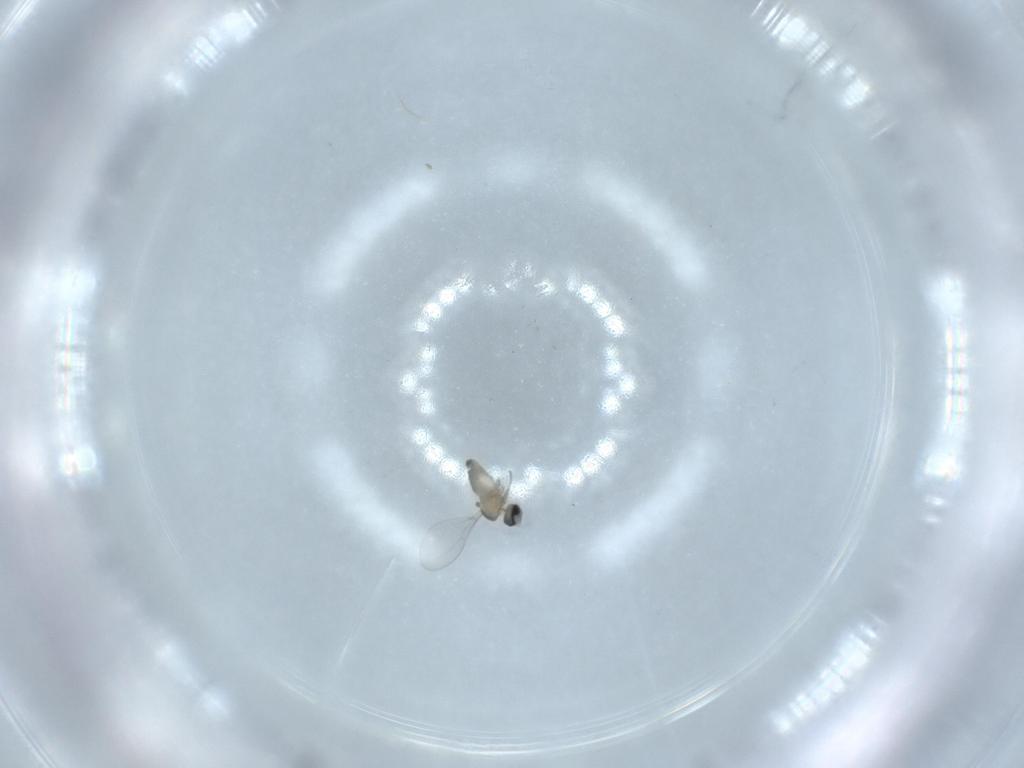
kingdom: Animalia
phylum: Arthropoda
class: Insecta
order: Diptera
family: Cecidomyiidae
